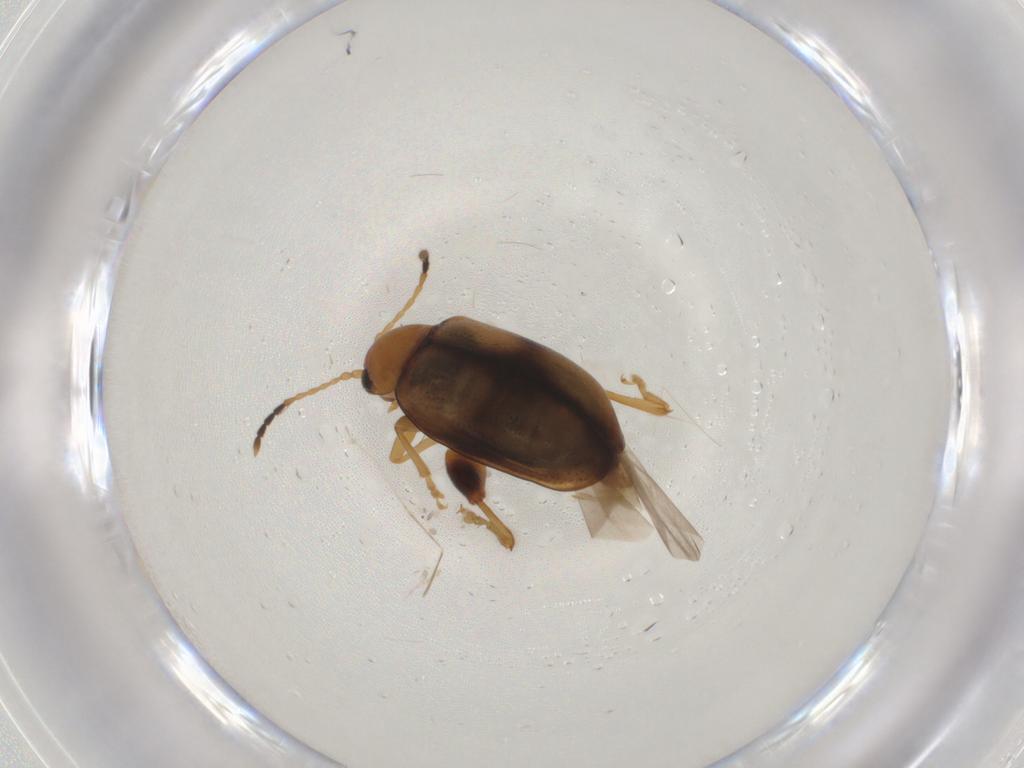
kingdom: Animalia
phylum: Arthropoda
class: Insecta
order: Coleoptera
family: Chrysomelidae
